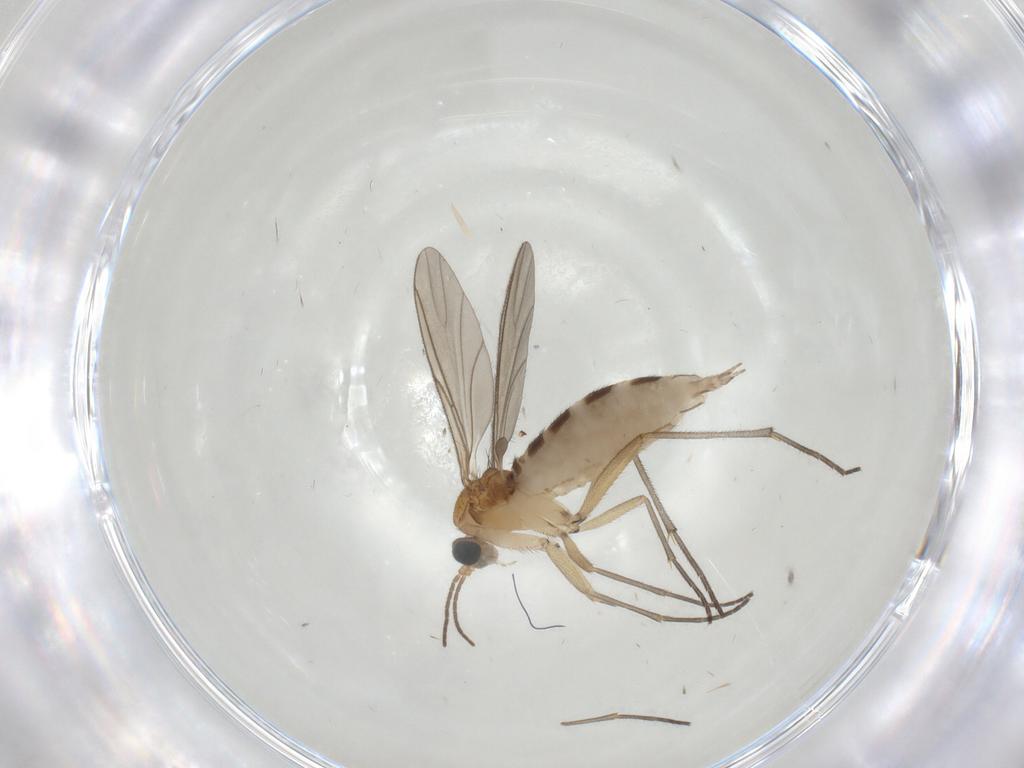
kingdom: Animalia
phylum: Arthropoda
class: Insecta
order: Diptera
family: Sciaridae
